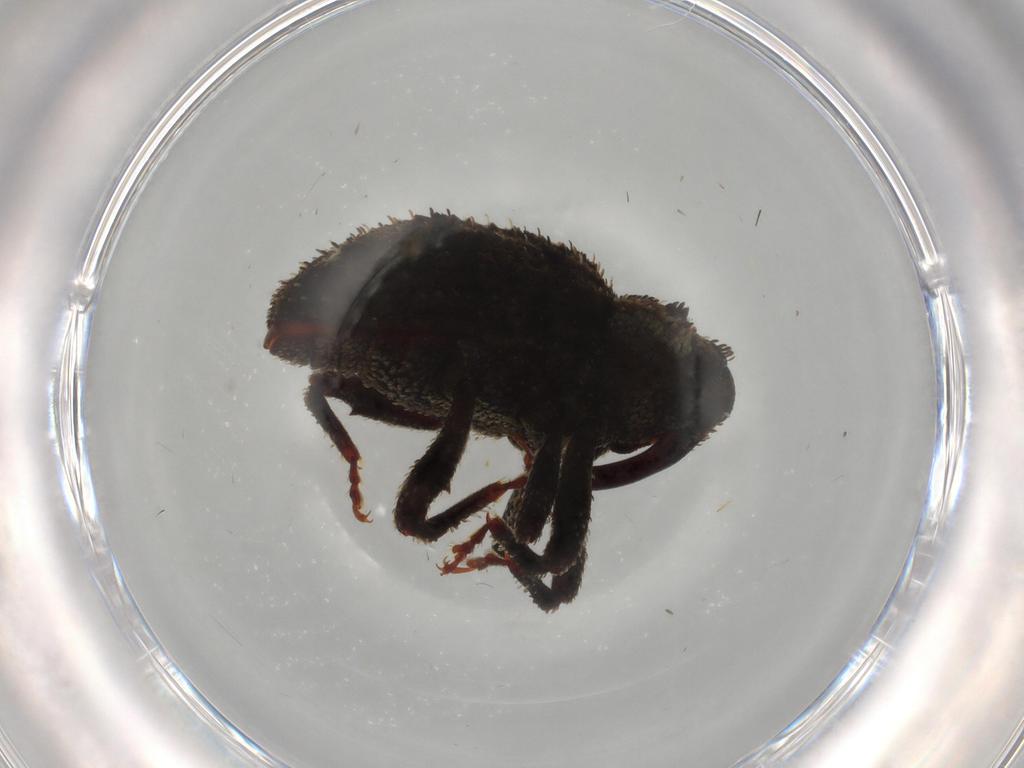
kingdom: Animalia
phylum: Arthropoda
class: Insecta
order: Coleoptera
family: Curculionidae
